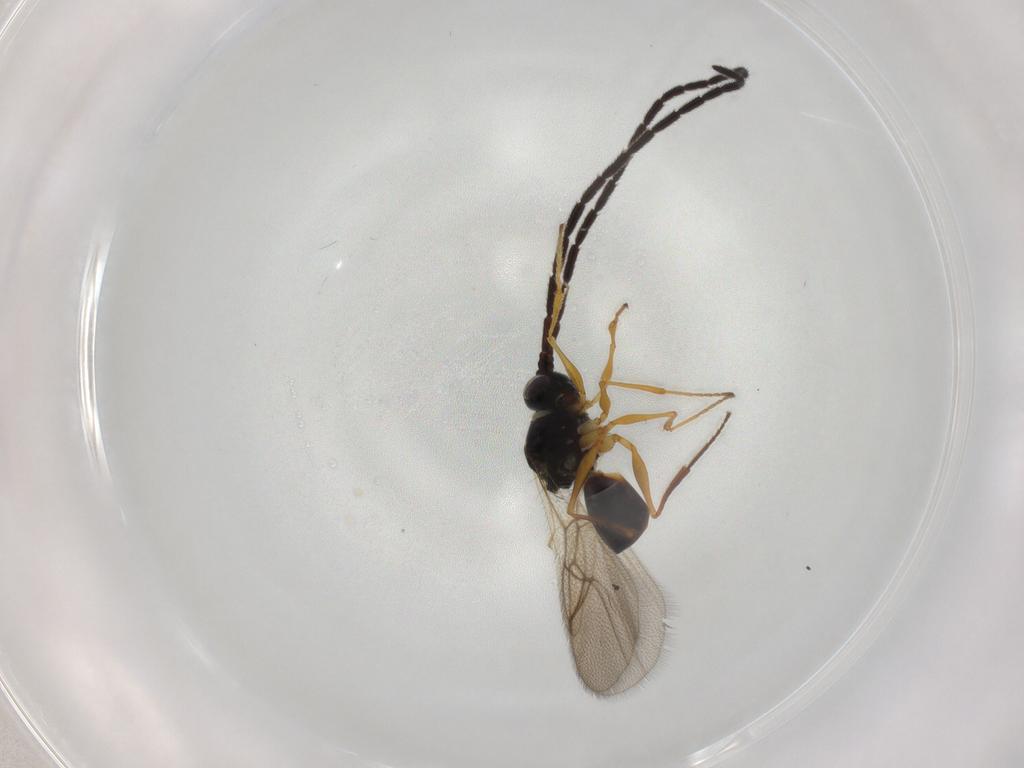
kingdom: Animalia
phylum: Arthropoda
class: Insecta
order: Hymenoptera
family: Figitidae
